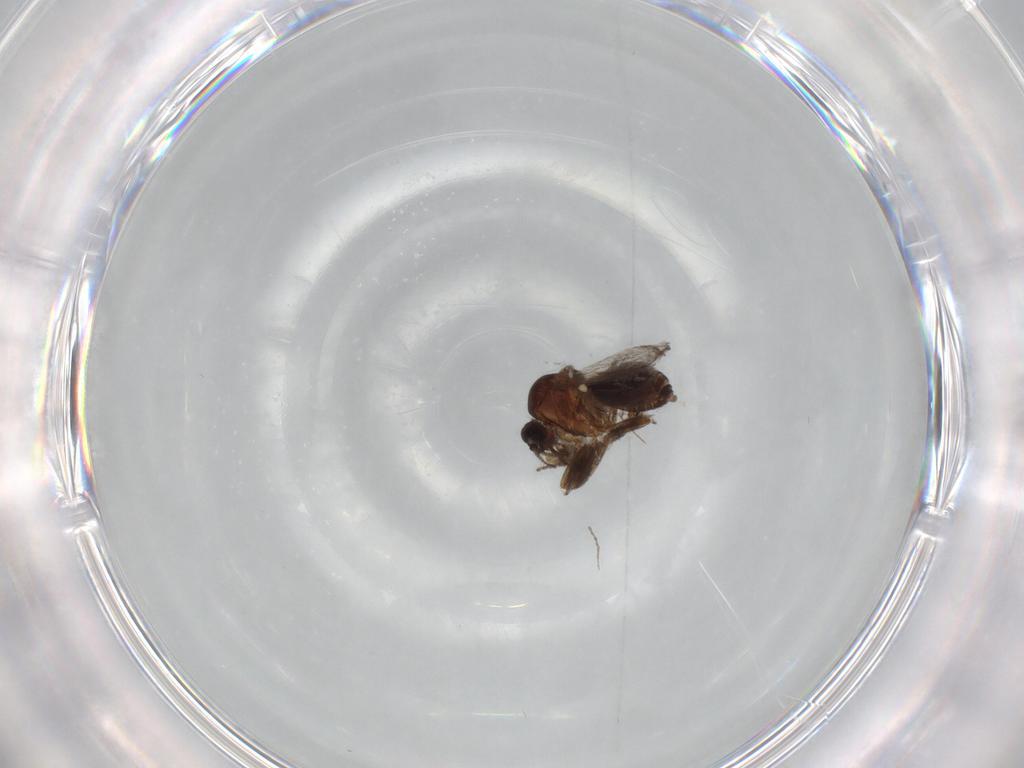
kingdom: Animalia
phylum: Arthropoda
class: Insecta
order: Diptera
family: Ceratopogonidae
